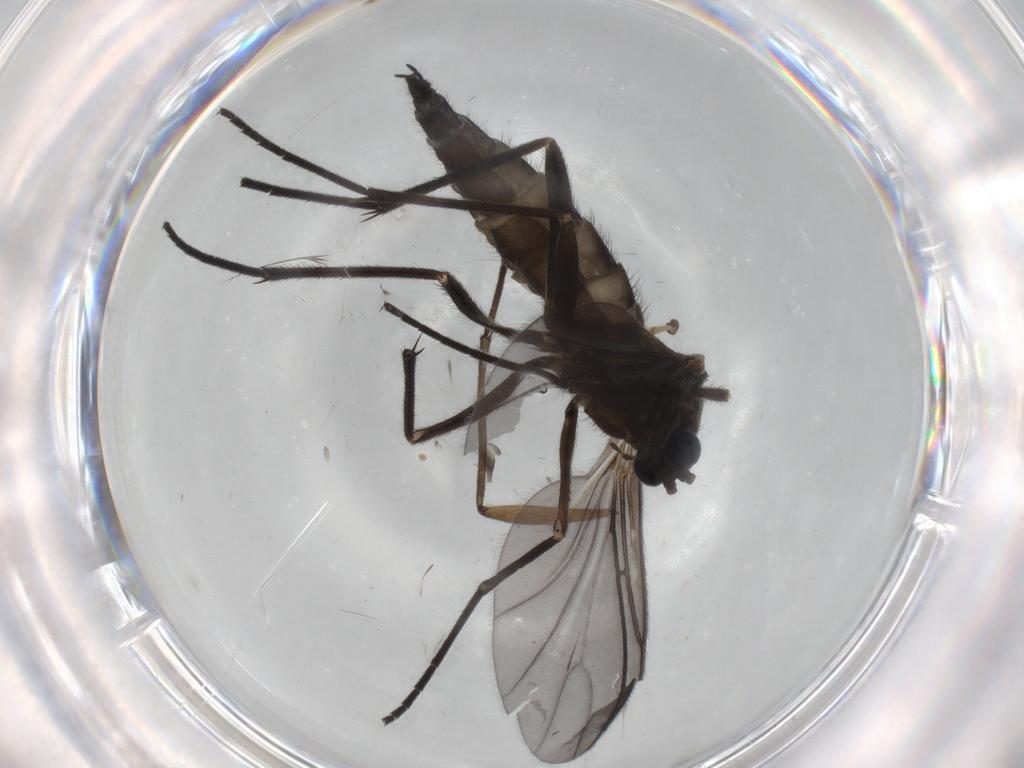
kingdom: Animalia
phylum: Arthropoda
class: Insecta
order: Diptera
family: Sciaridae
